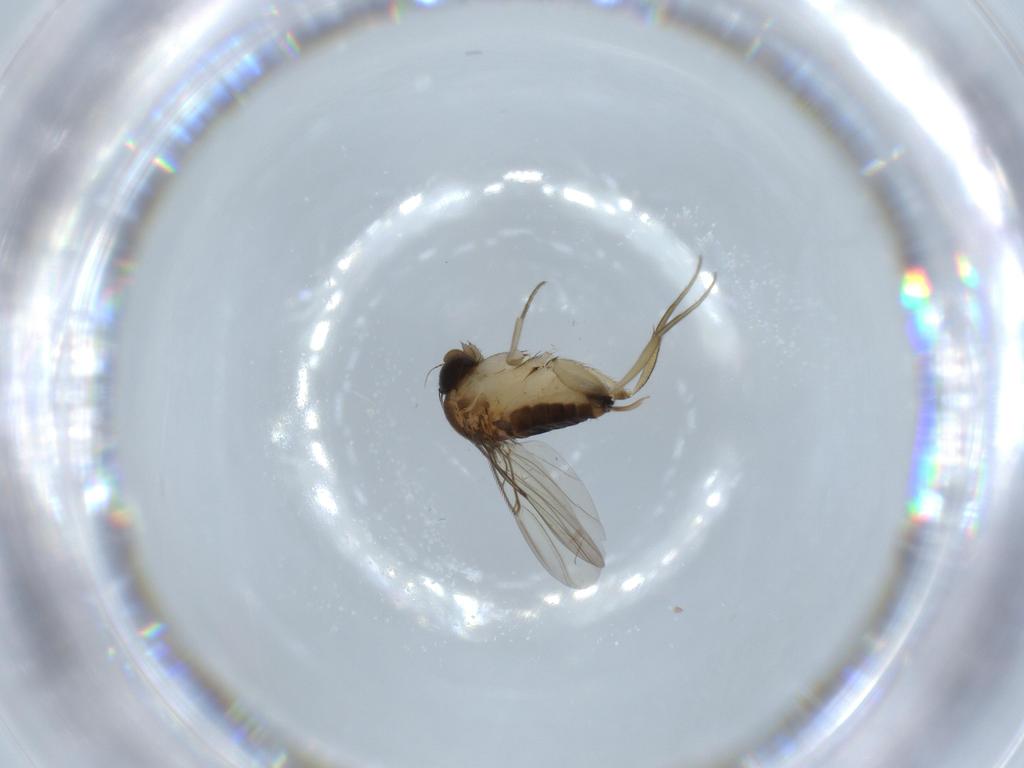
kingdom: Animalia
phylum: Arthropoda
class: Insecta
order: Diptera
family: Phoridae
